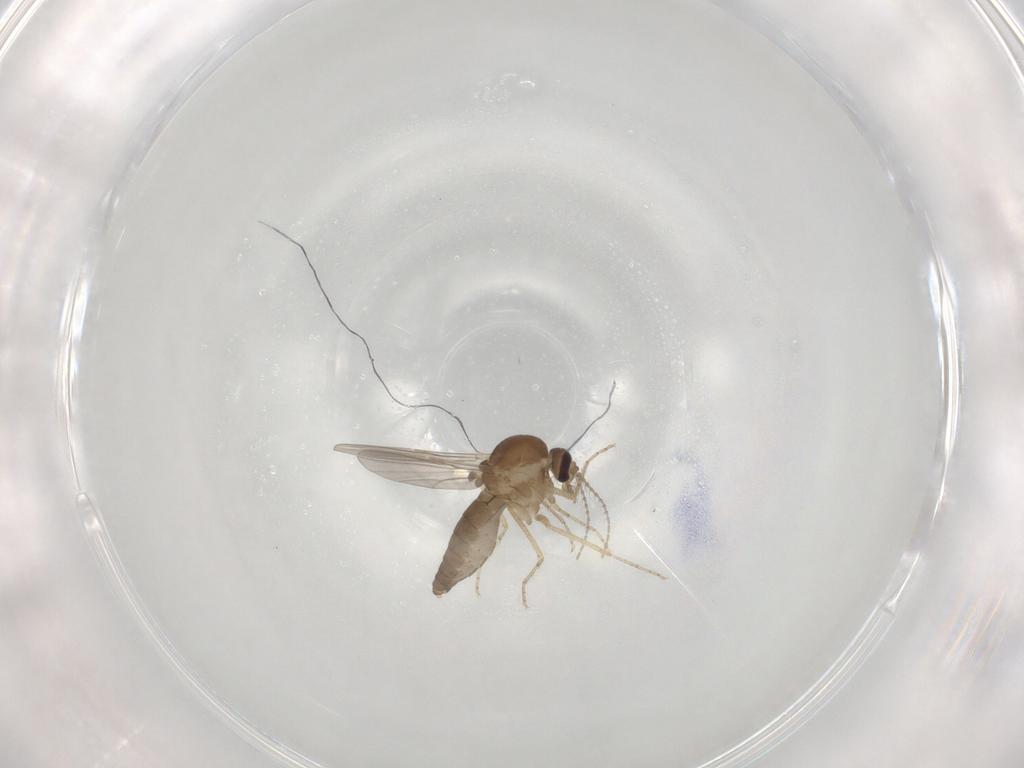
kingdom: Animalia
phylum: Arthropoda
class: Insecta
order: Diptera
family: Ceratopogonidae
